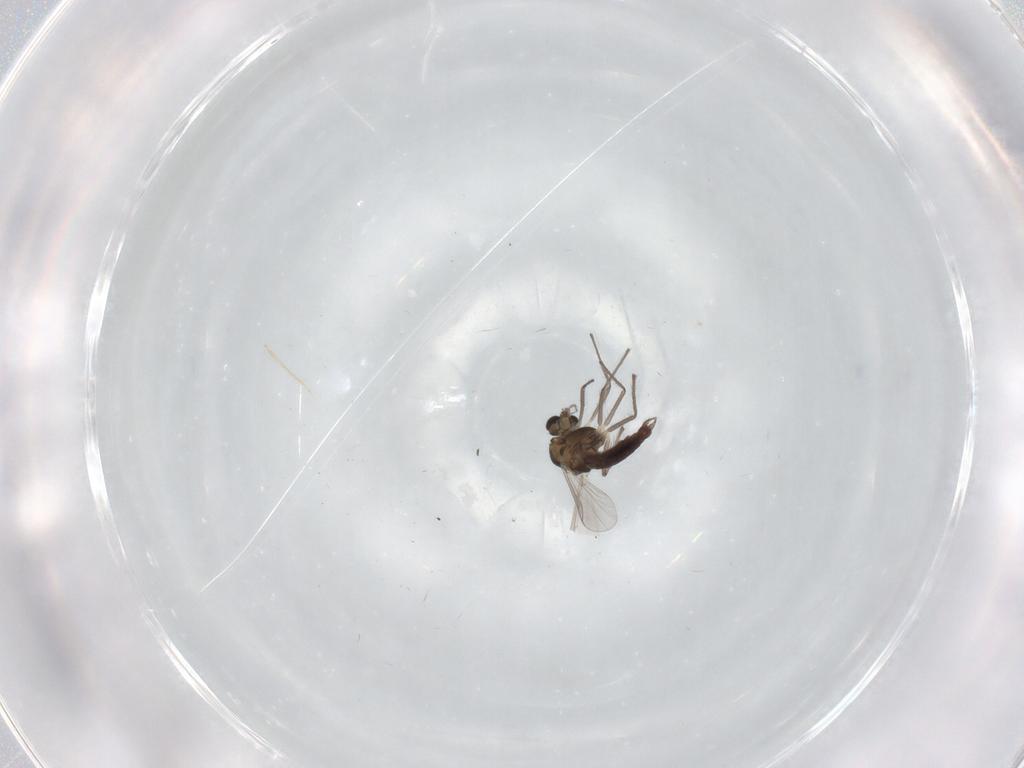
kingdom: Animalia
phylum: Arthropoda
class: Insecta
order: Diptera
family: Chironomidae
